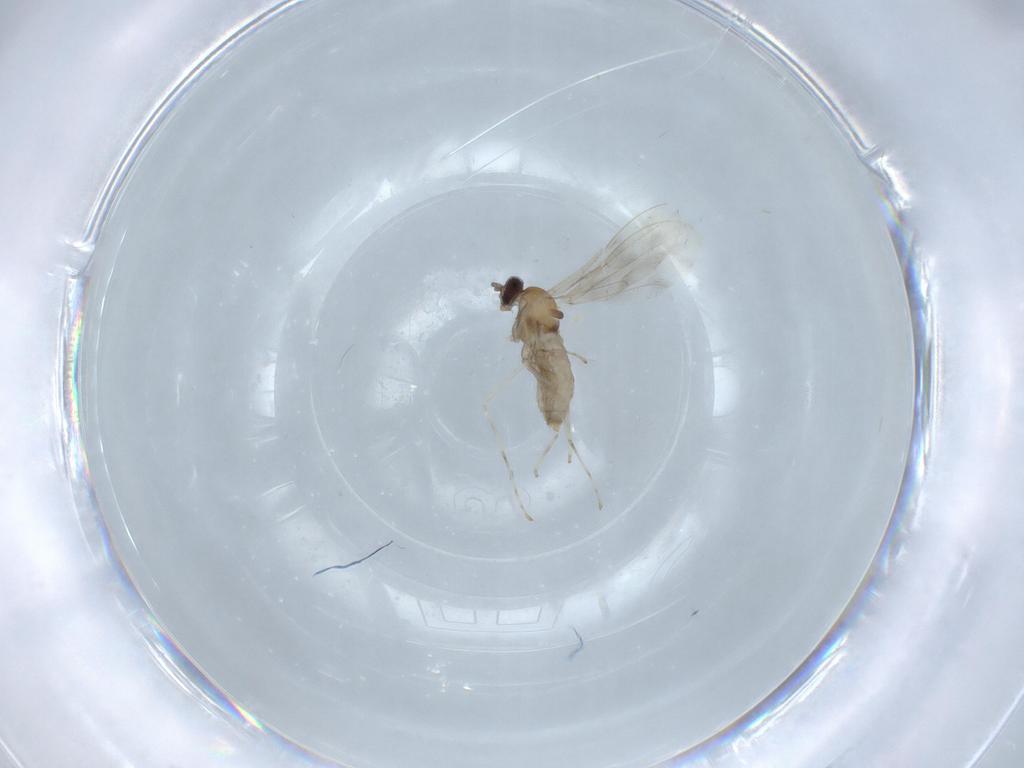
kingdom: Animalia
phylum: Arthropoda
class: Insecta
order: Diptera
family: Cecidomyiidae
